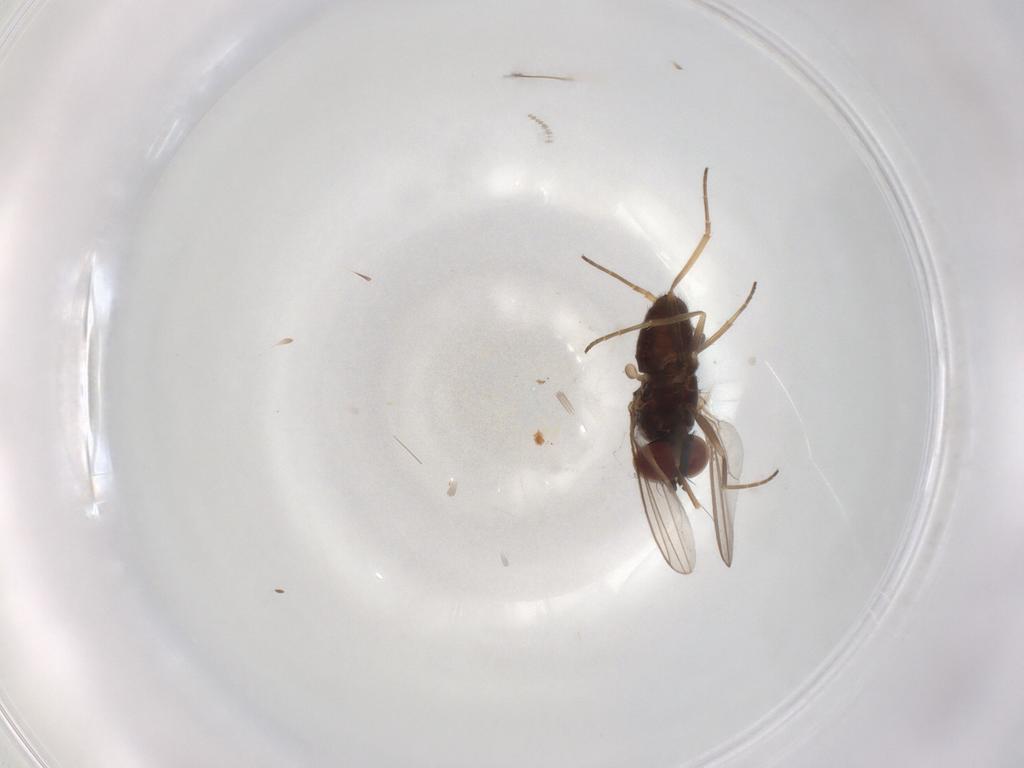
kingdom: Animalia
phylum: Arthropoda
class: Insecta
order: Diptera
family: Dolichopodidae
